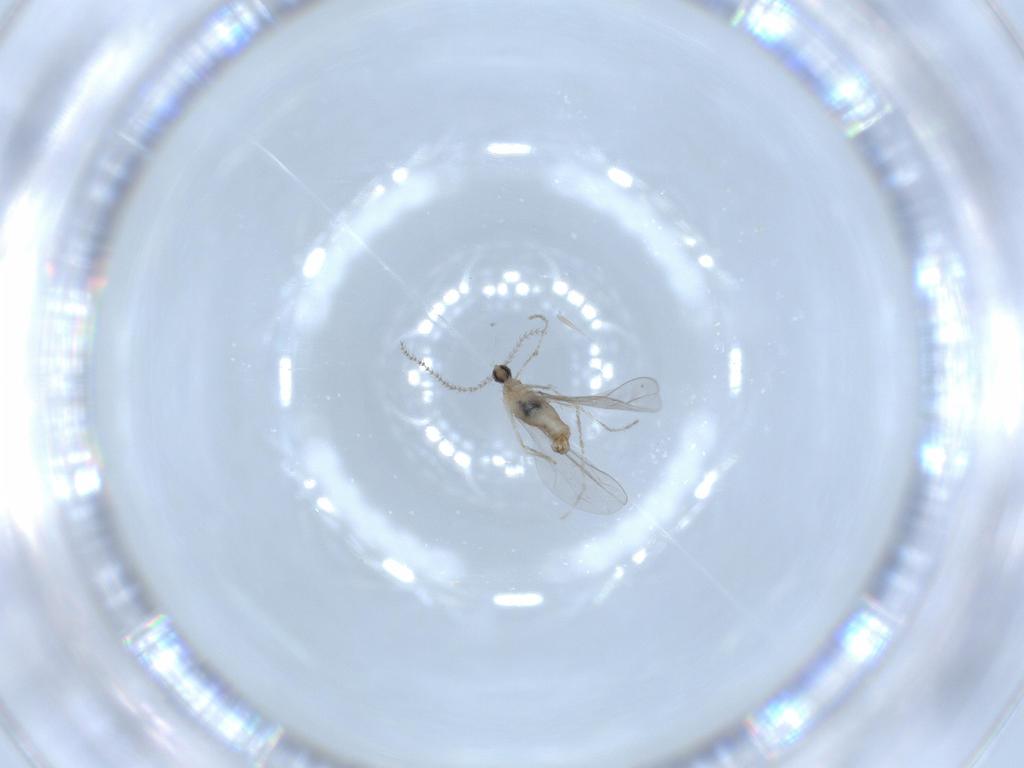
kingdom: Animalia
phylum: Arthropoda
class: Insecta
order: Diptera
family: Cecidomyiidae
